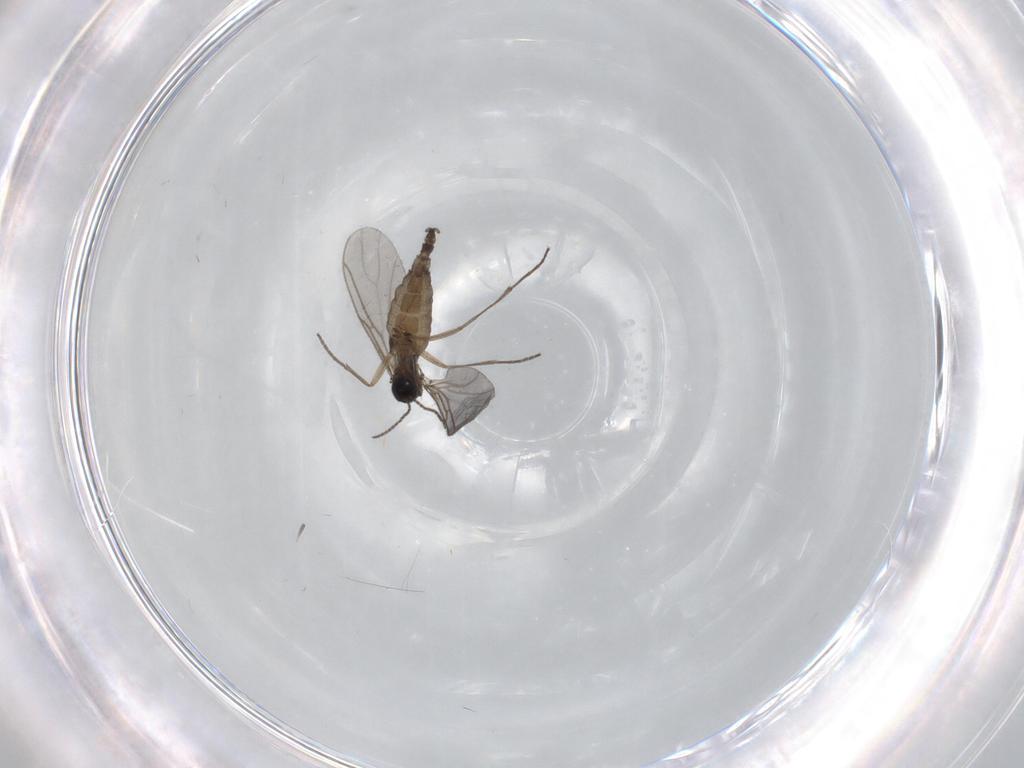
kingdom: Animalia
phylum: Arthropoda
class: Insecta
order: Diptera
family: Sciaridae
